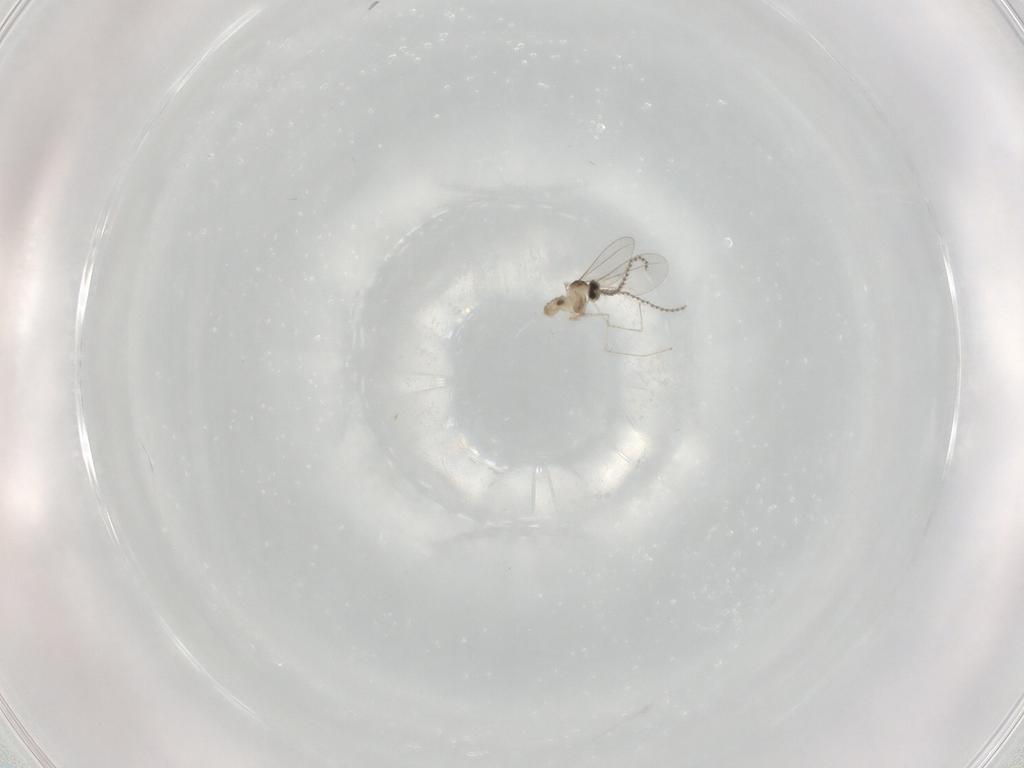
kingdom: Animalia
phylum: Arthropoda
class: Insecta
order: Diptera
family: Cecidomyiidae
